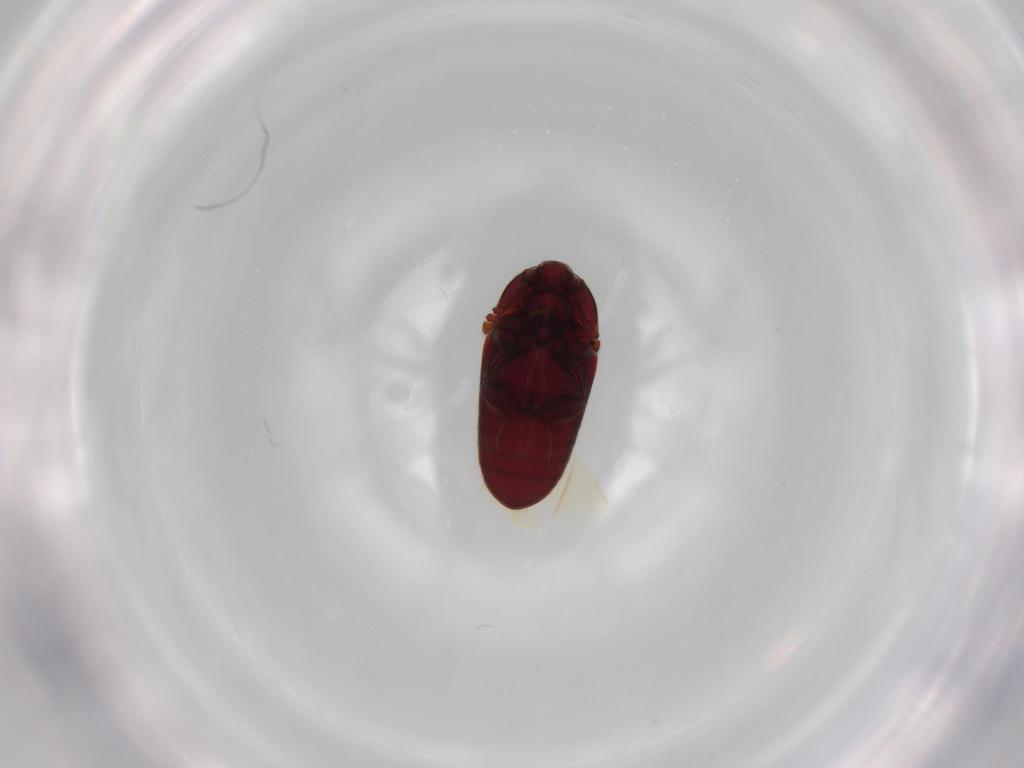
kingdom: Animalia
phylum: Arthropoda
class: Insecta
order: Coleoptera
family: Throscidae
